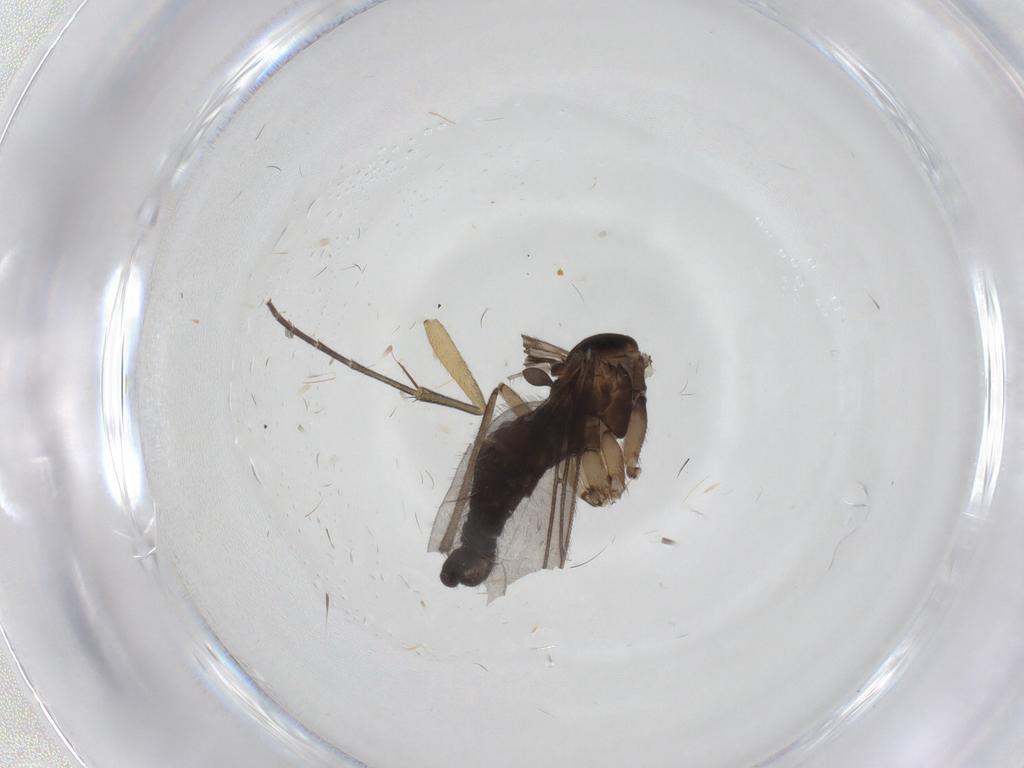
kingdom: Animalia
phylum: Arthropoda
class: Insecta
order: Diptera
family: Sciaridae
